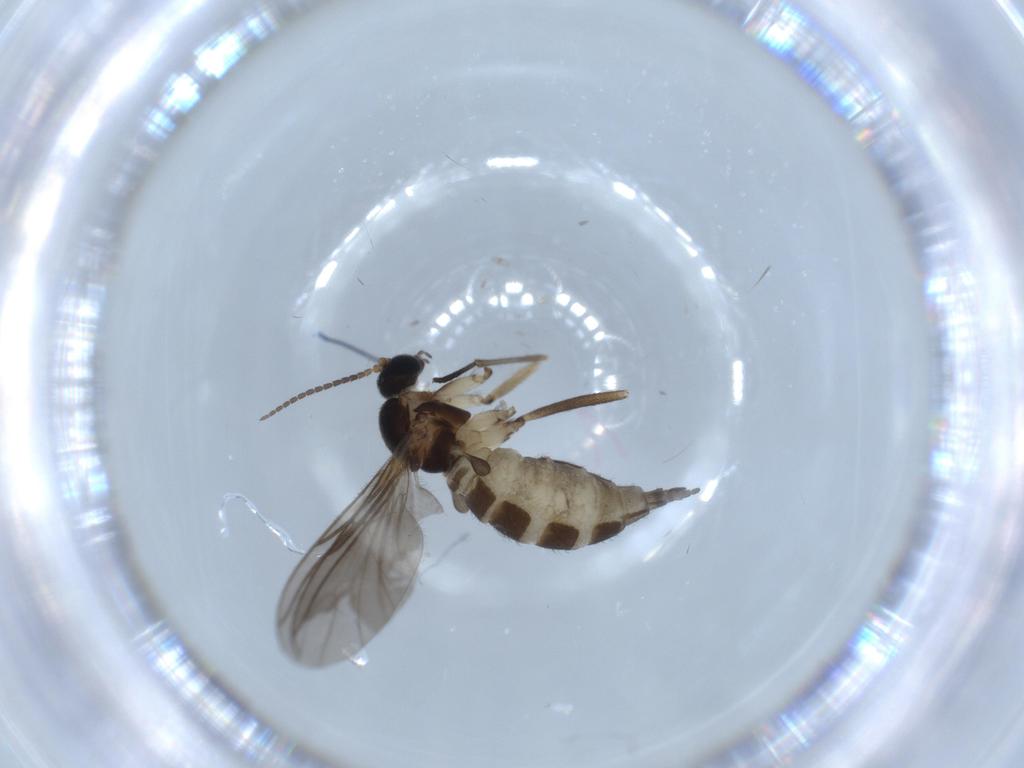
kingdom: Animalia
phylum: Arthropoda
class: Insecta
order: Diptera
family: Sciaridae
